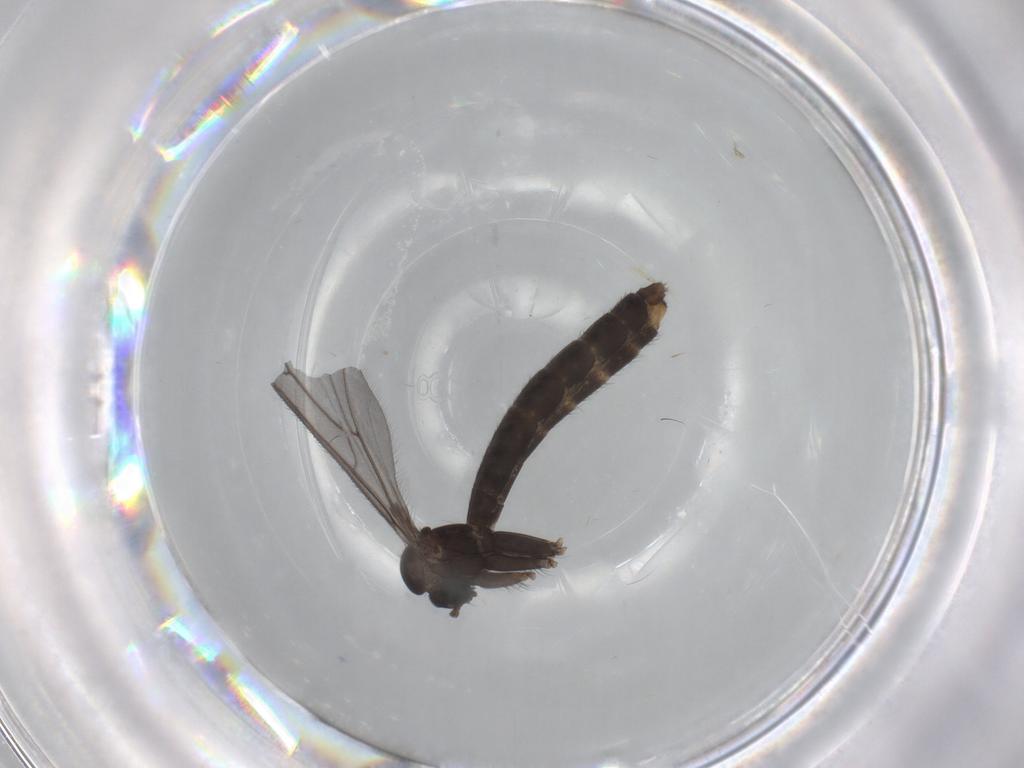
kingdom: Animalia
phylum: Arthropoda
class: Insecta
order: Diptera
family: Keroplatidae
